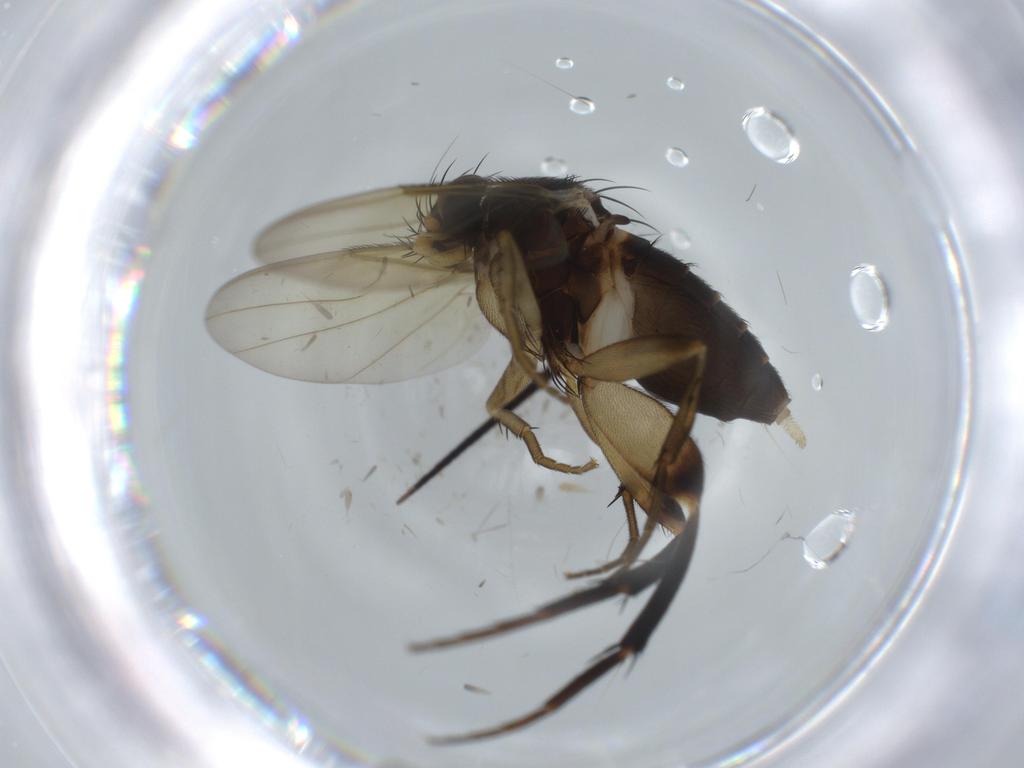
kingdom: Animalia
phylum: Arthropoda
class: Insecta
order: Diptera
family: Phoridae
